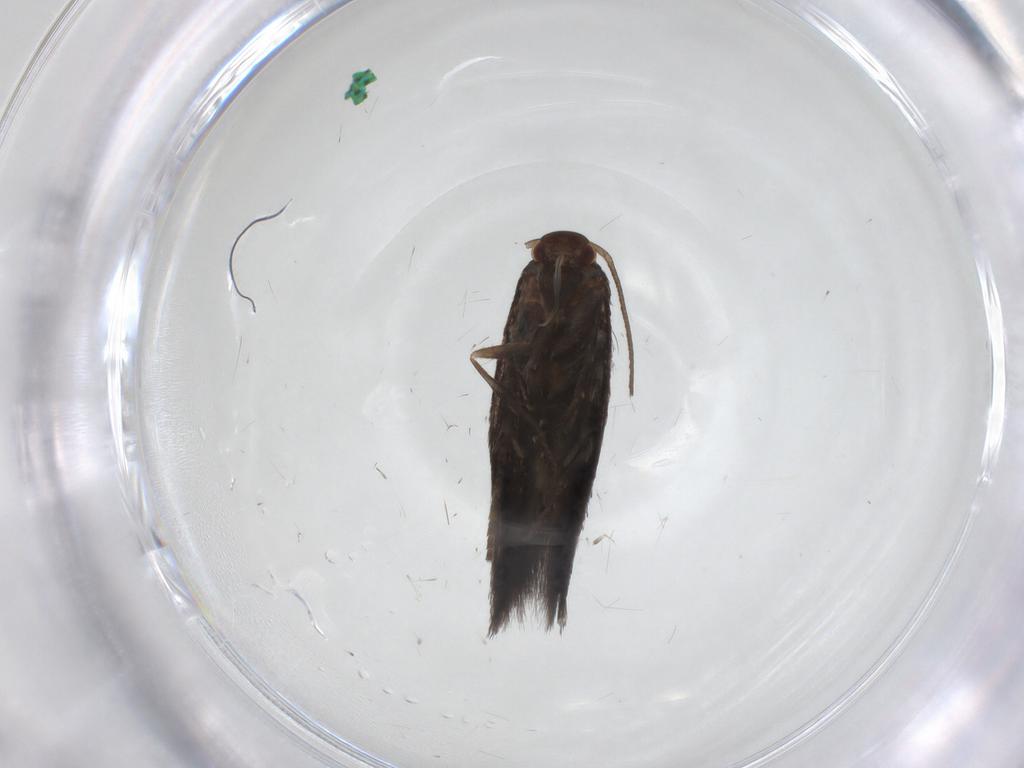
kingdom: Animalia
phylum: Arthropoda
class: Insecta
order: Lepidoptera
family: Elachistidae
